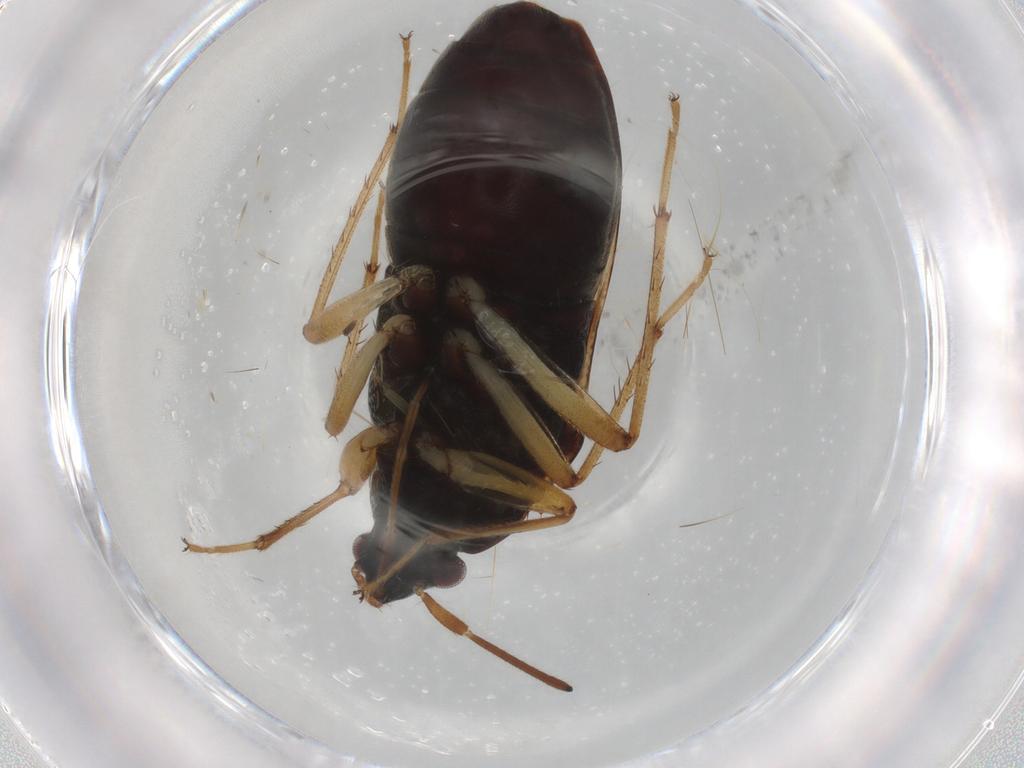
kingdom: Animalia
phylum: Arthropoda
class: Insecta
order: Hemiptera
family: Rhyparochromidae
